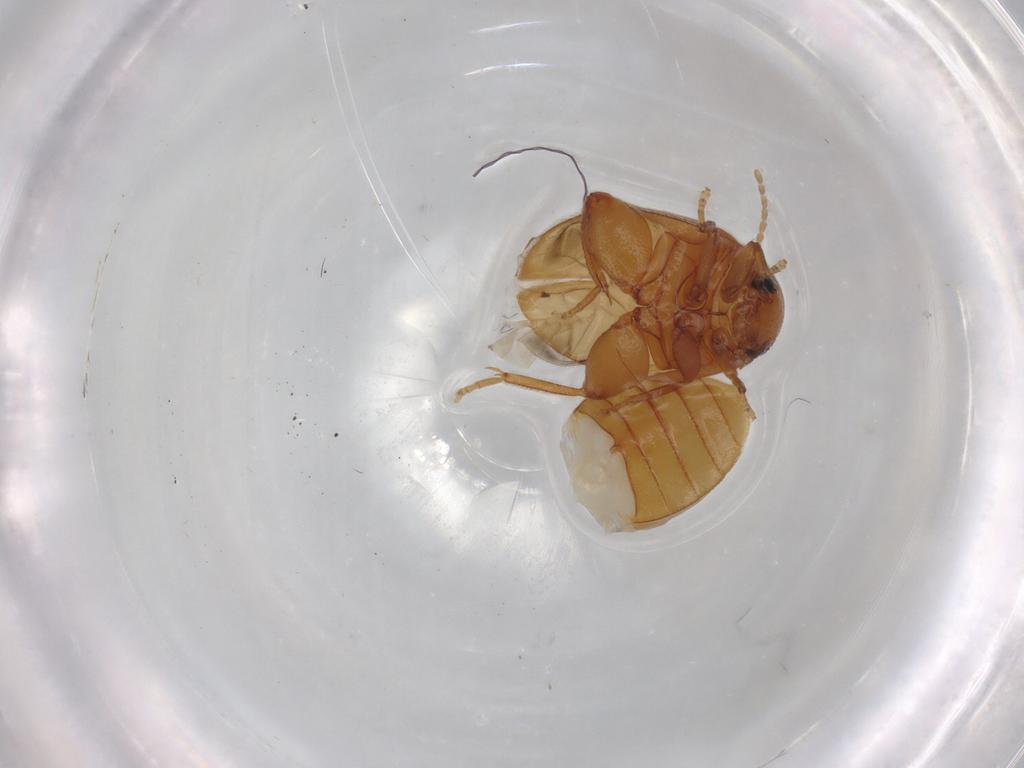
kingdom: Animalia
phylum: Arthropoda
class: Insecta
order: Coleoptera
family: Scirtidae
